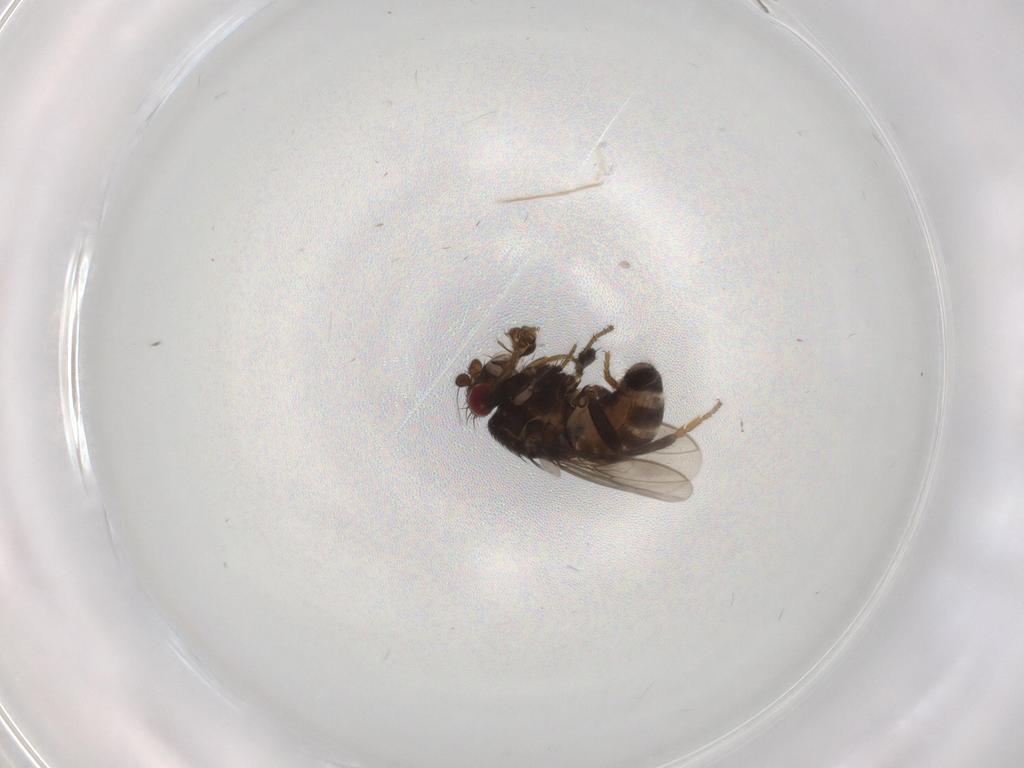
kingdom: Animalia
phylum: Arthropoda
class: Insecta
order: Diptera
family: Sphaeroceridae
